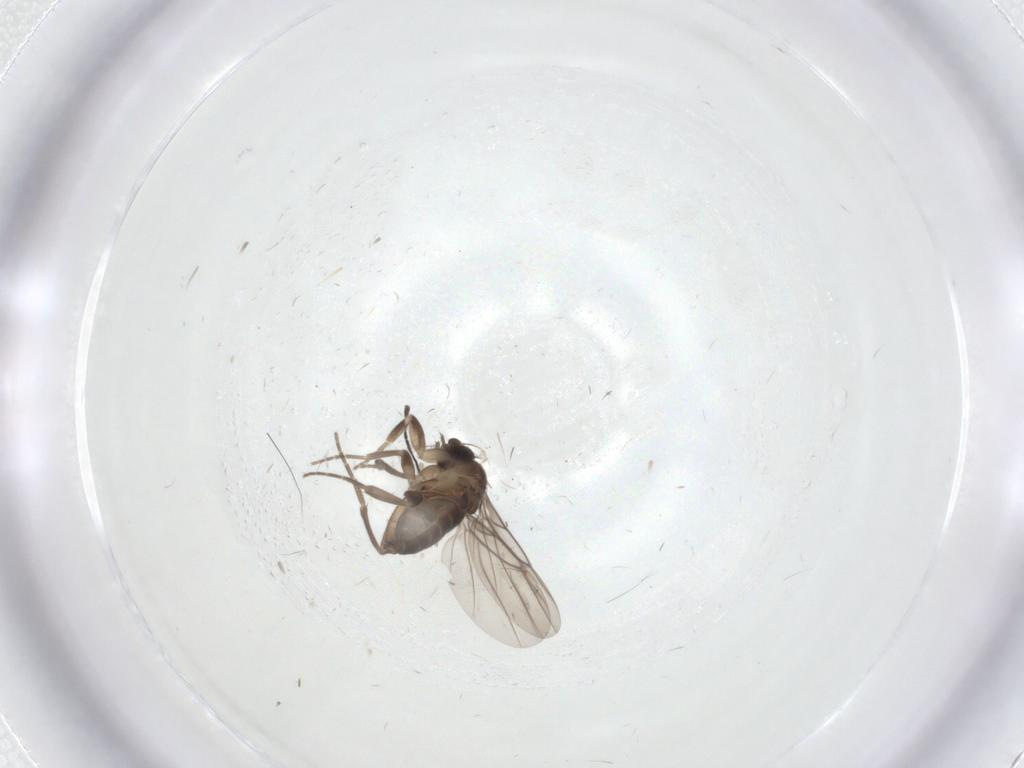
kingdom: Animalia
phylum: Arthropoda
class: Insecta
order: Diptera
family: Phoridae
